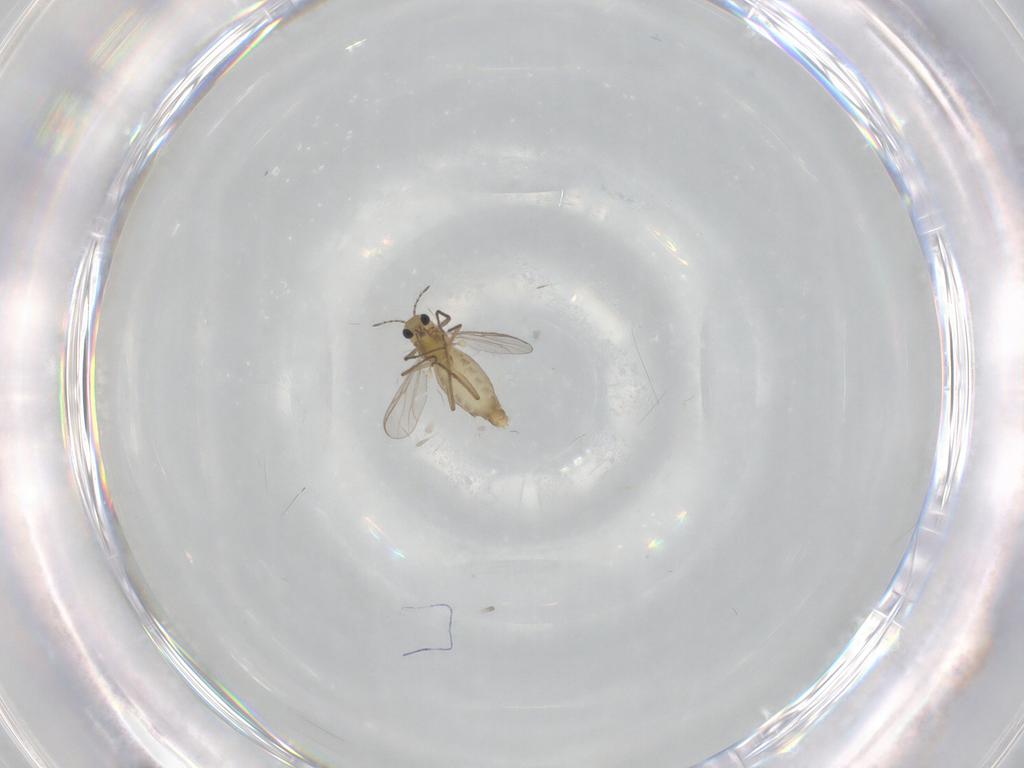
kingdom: Animalia
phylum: Arthropoda
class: Insecta
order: Diptera
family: Chironomidae
